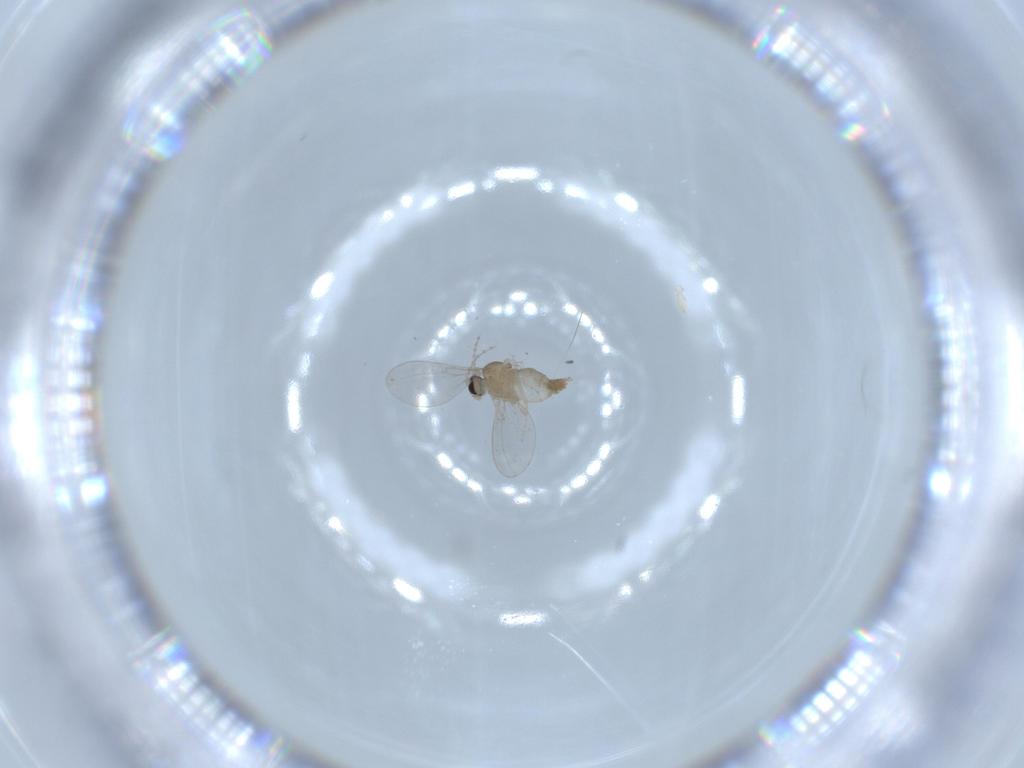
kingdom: Animalia
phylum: Arthropoda
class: Insecta
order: Diptera
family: Cecidomyiidae
